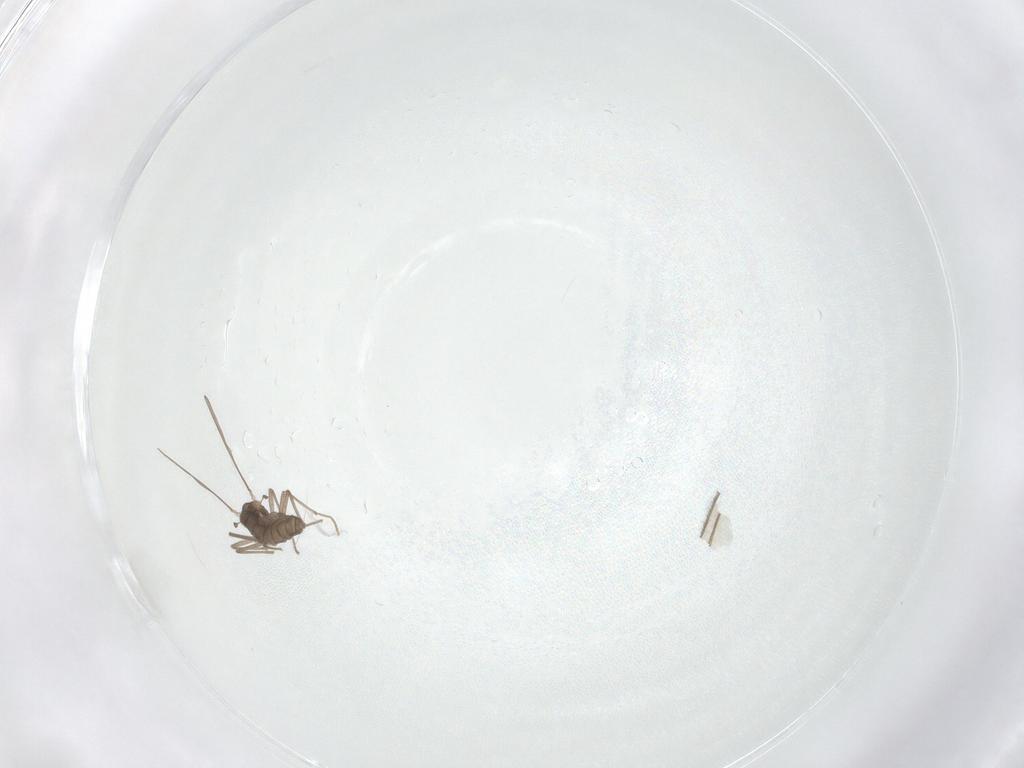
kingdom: Animalia
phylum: Arthropoda
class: Insecta
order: Diptera
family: Chironomidae
